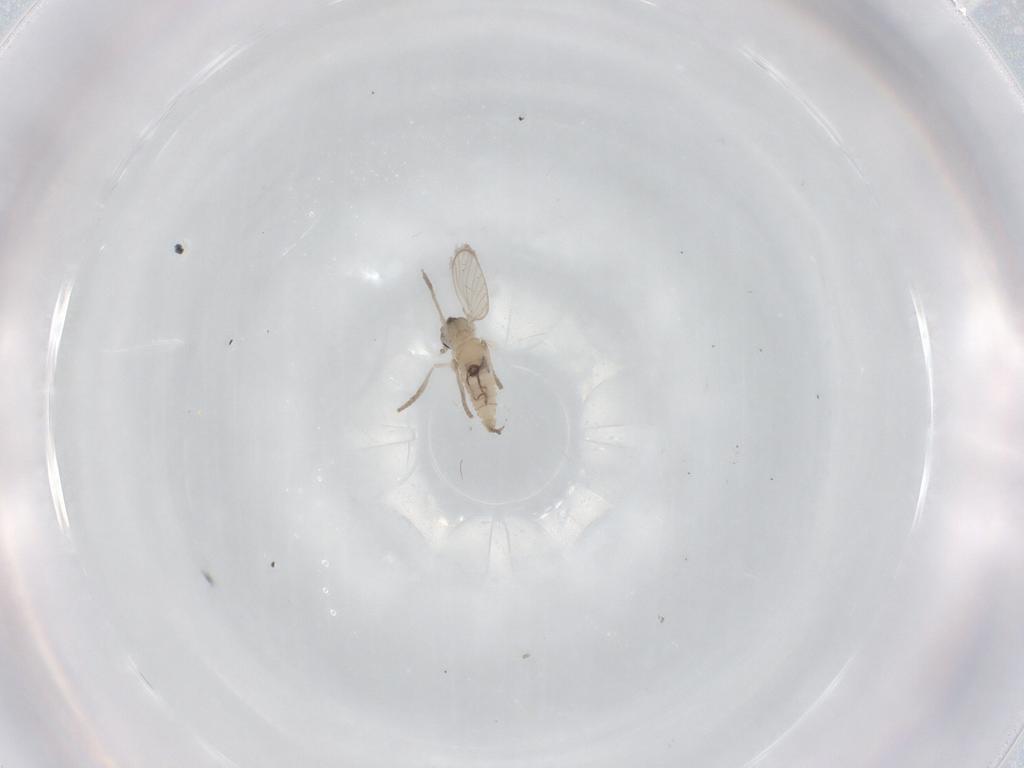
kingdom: Animalia
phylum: Arthropoda
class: Insecta
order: Diptera
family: Psychodidae
